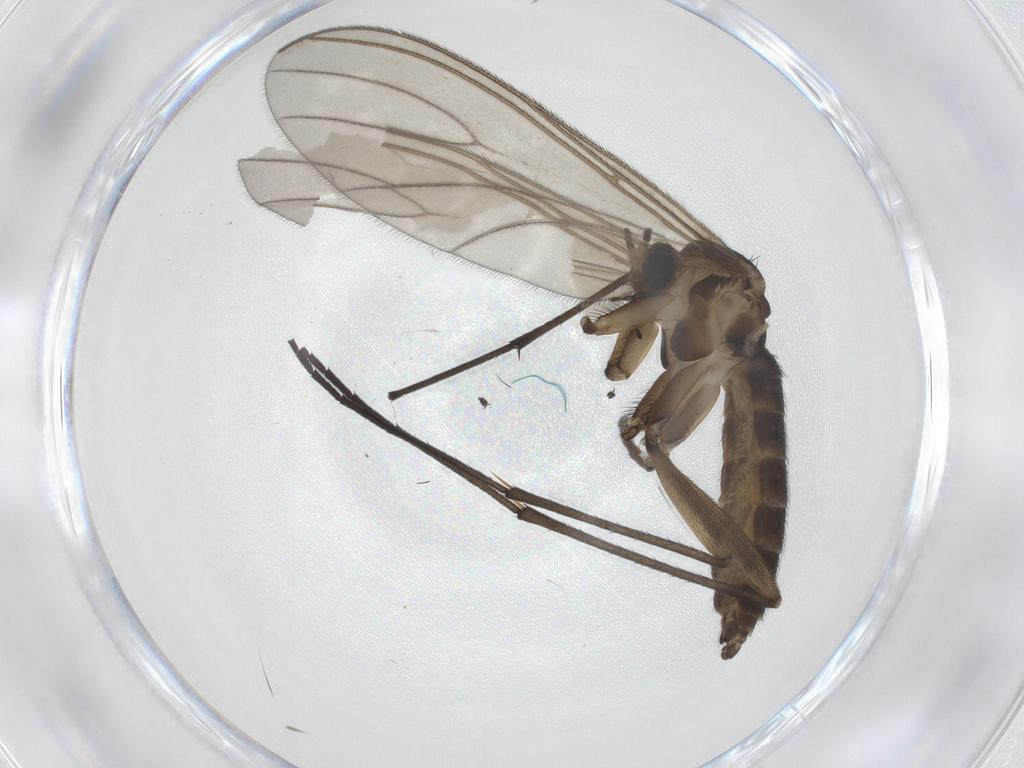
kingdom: Animalia
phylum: Arthropoda
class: Insecta
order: Diptera
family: Sciaridae
